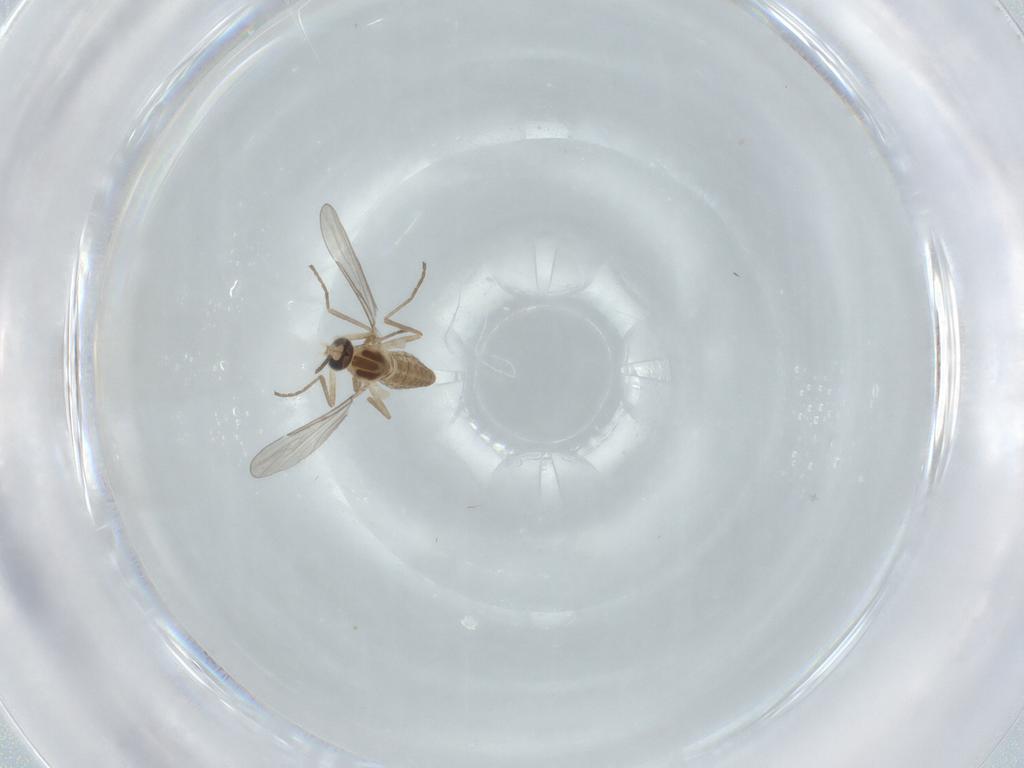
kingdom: Animalia
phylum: Arthropoda
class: Insecta
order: Diptera
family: Cecidomyiidae
